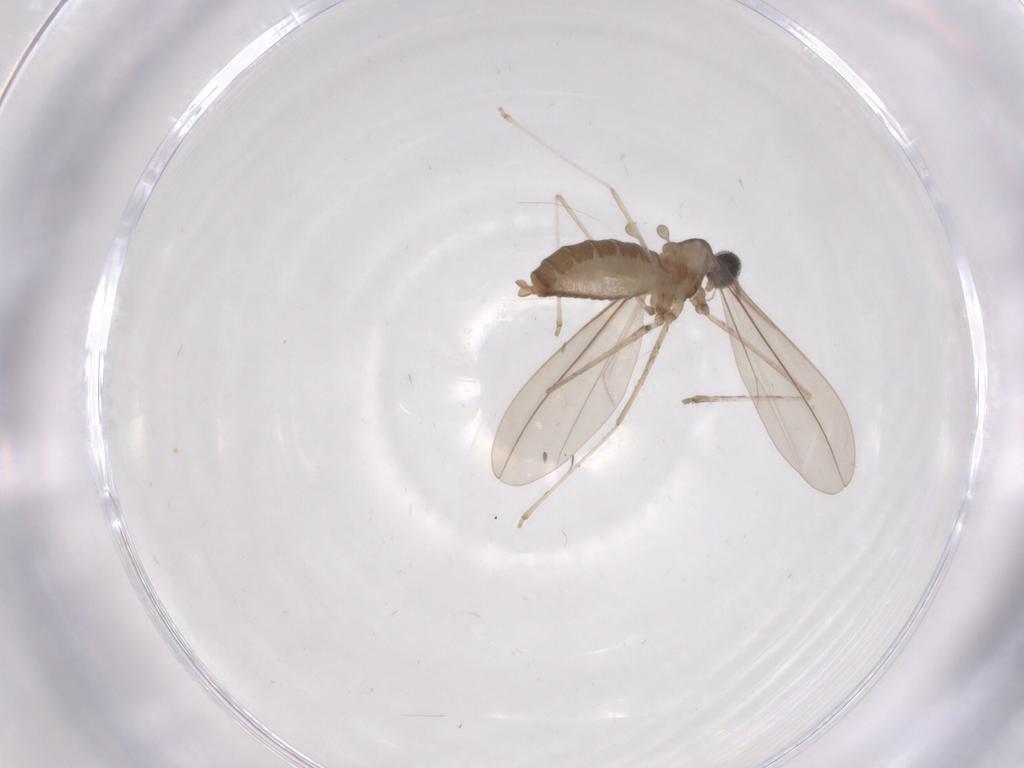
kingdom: Animalia
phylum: Arthropoda
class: Insecta
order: Diptera
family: Cecidomyiidae
